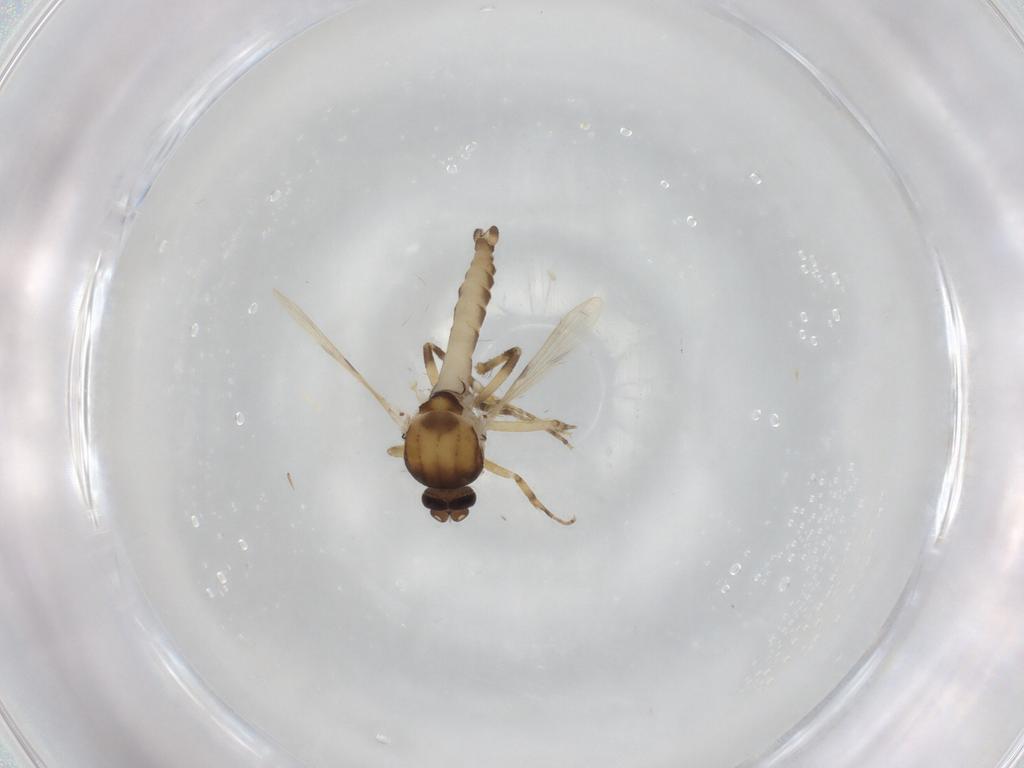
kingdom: Animalia
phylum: Arthropoda
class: Insecta
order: Diptera
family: Ceratopogonidae
